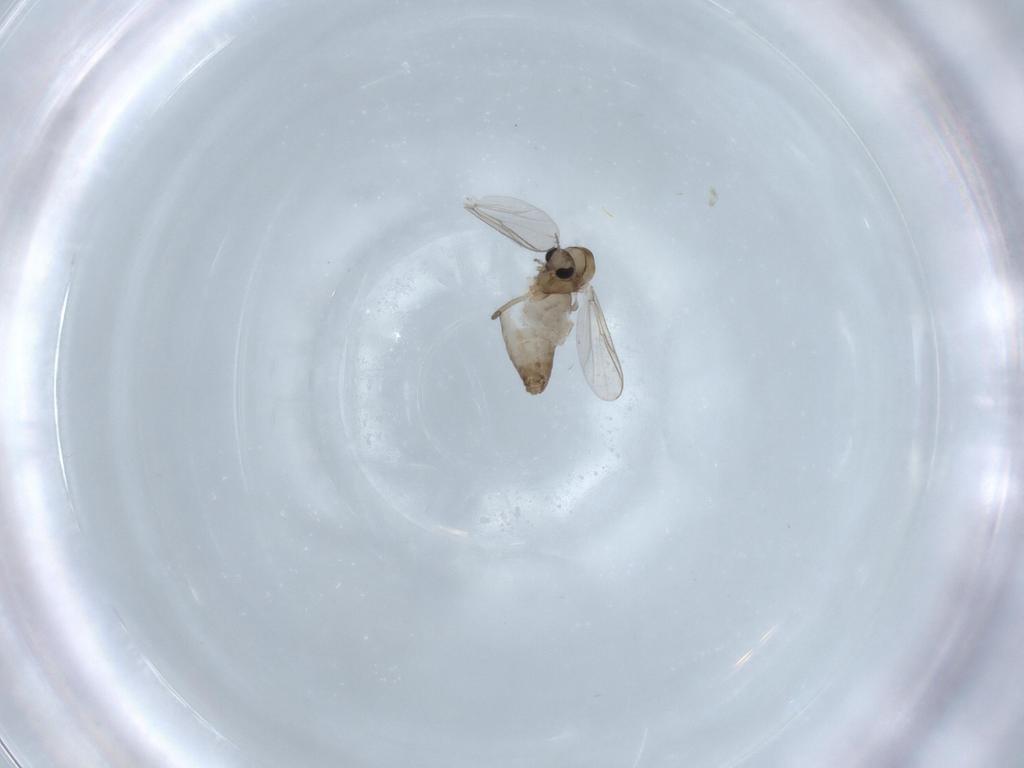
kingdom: Animalia
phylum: Arthropoda
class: Insecta
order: Diptera
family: Chironomidae
